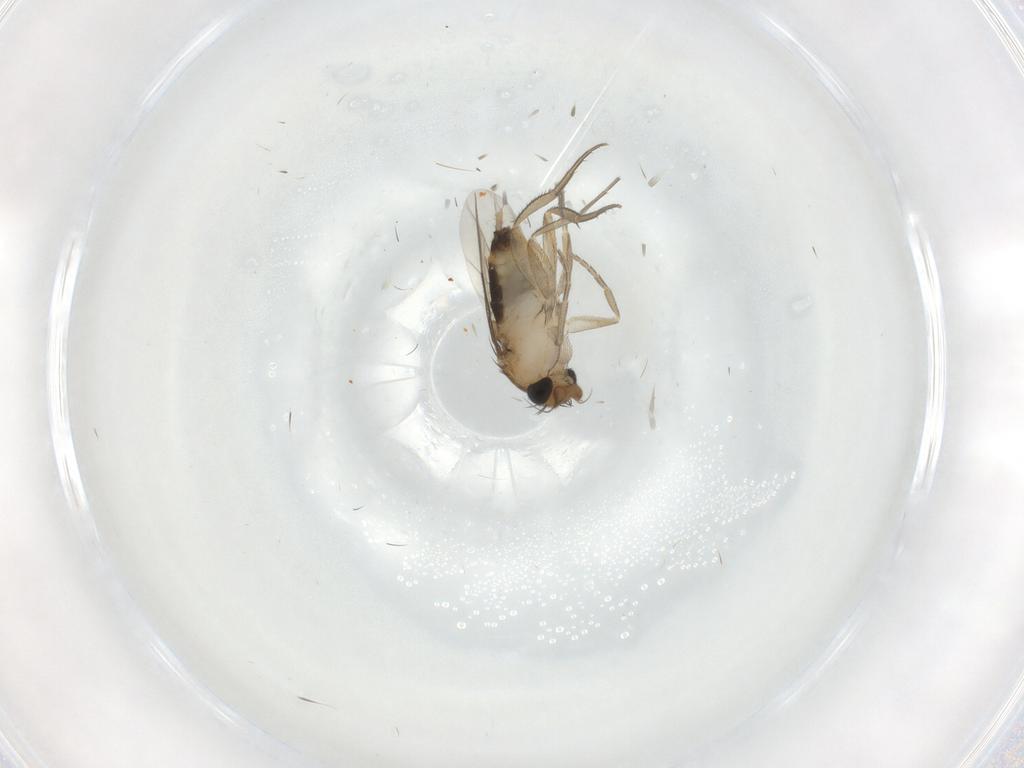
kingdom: Animalia
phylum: Arthropoda
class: Insecta
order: Diptera
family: Phoridae
